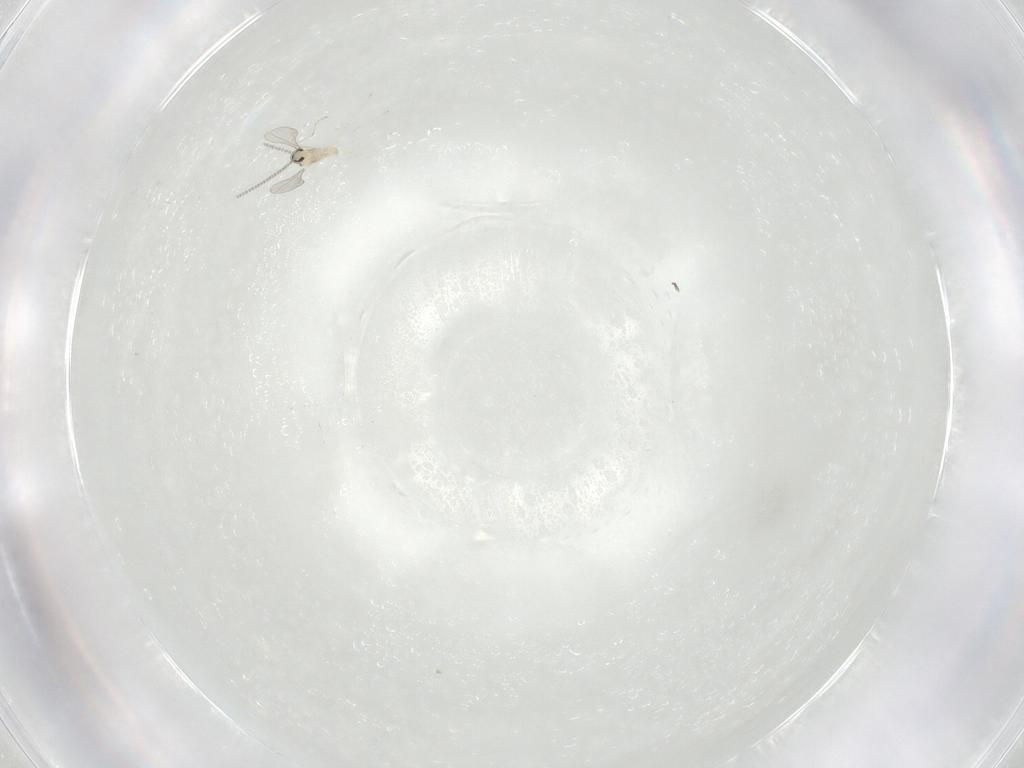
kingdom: Animalia
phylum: Arthropoda
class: Insecta
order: Diptera
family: Cecidomyiidae
